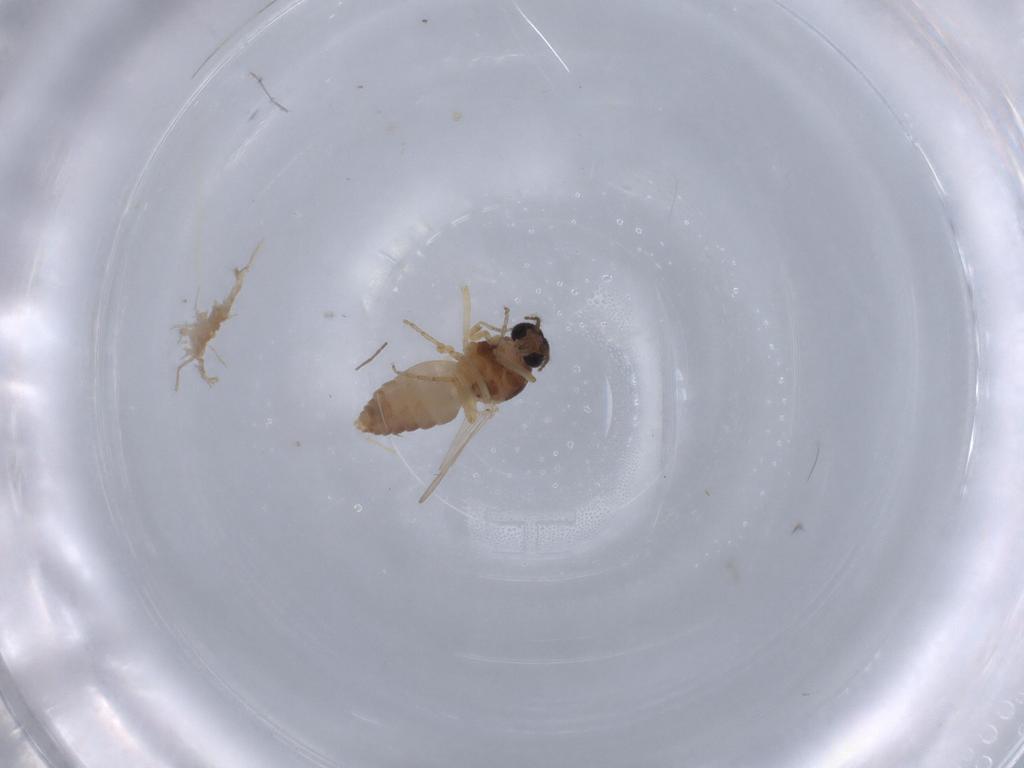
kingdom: Animalia
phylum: Arthropoda
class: Insecta
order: Diptera
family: Ceratopogonidae
